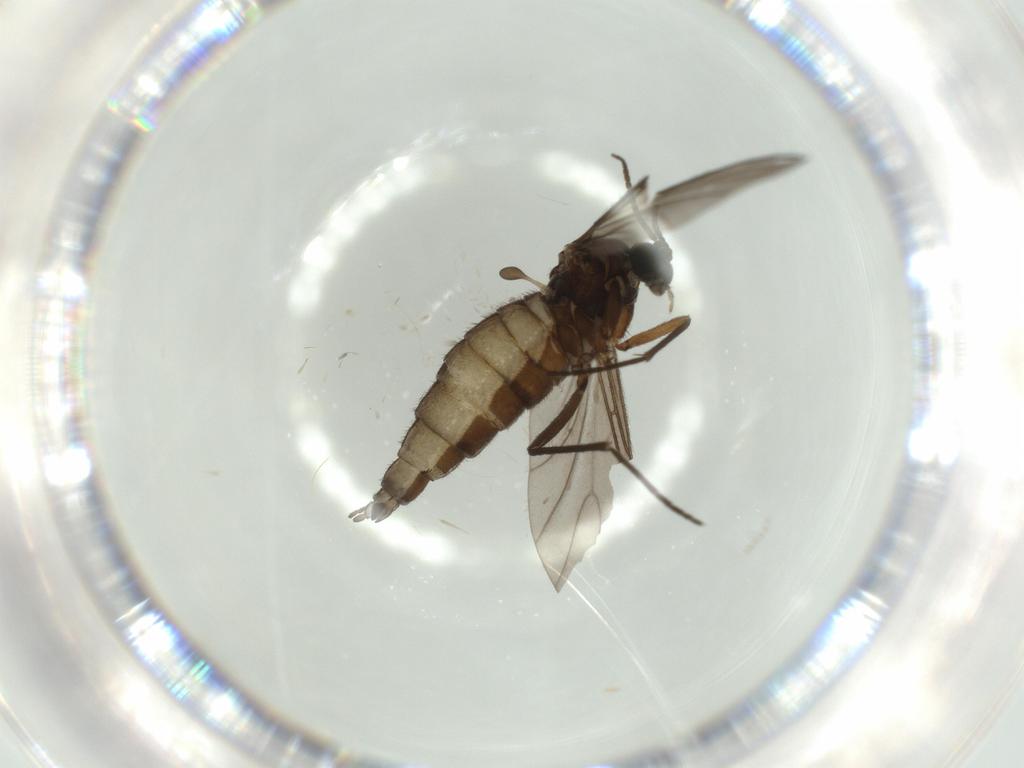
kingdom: Animalia
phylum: Arthropoda
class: Insecta
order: Diptera
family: Sciaridae
